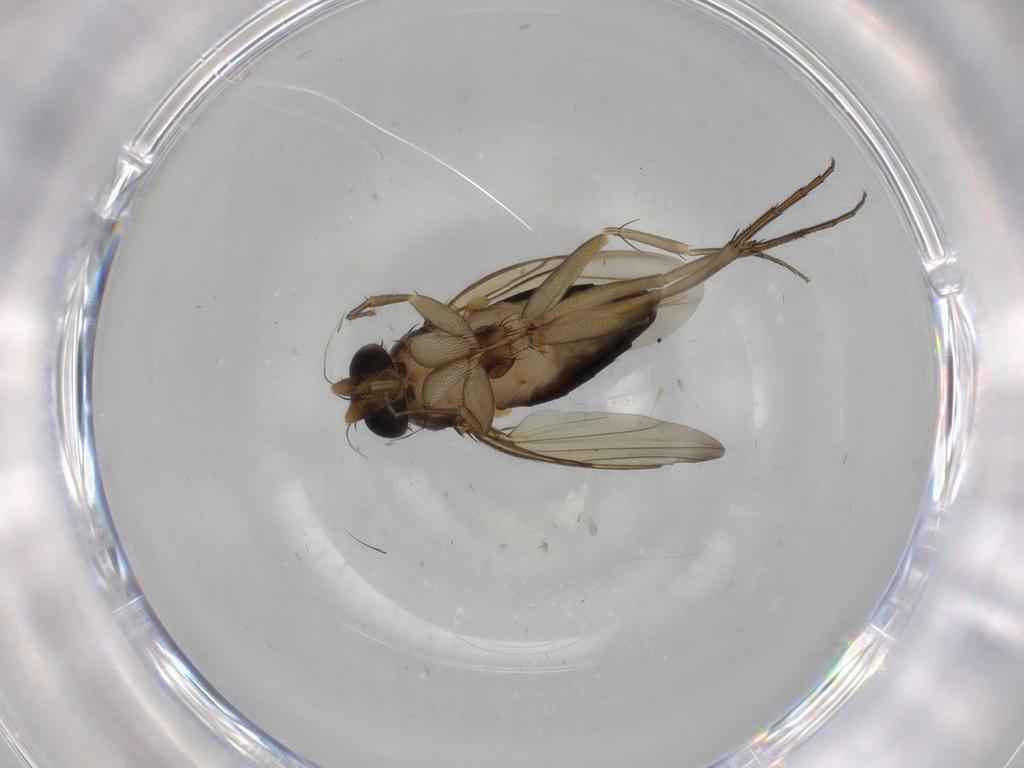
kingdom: Animalia
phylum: Arthropoda
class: Insecta
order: Diptera
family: Phoridae
